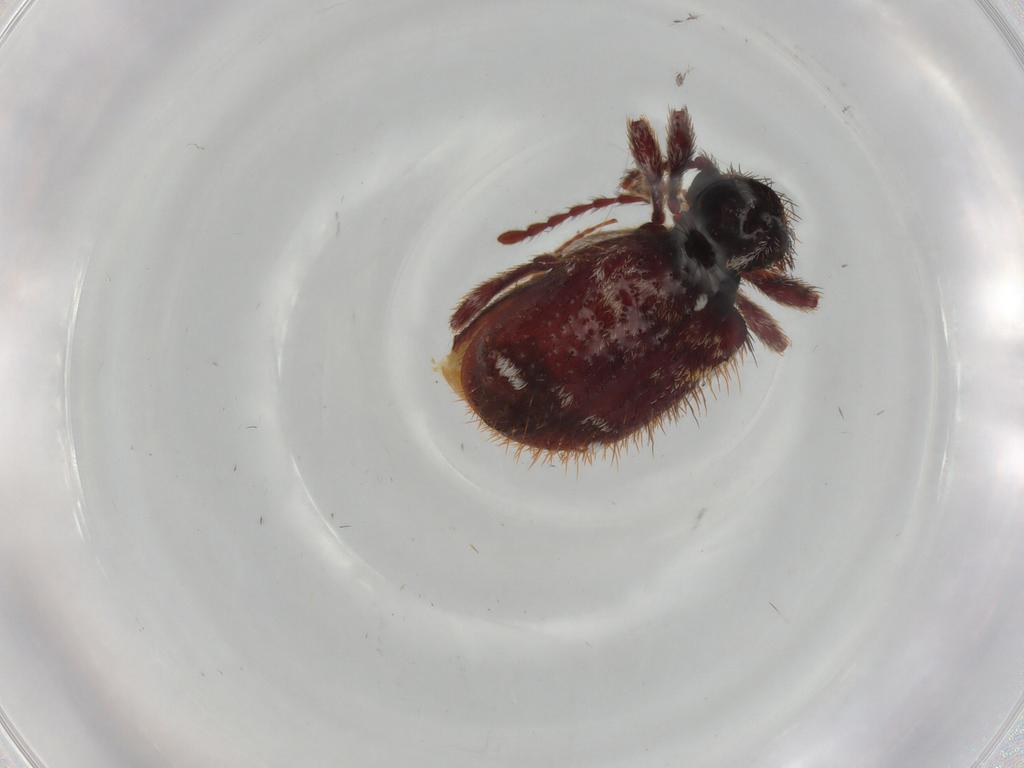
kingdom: Animalia
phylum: Arthropoda
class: Insecta
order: Coleoptera
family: Ptinidae
